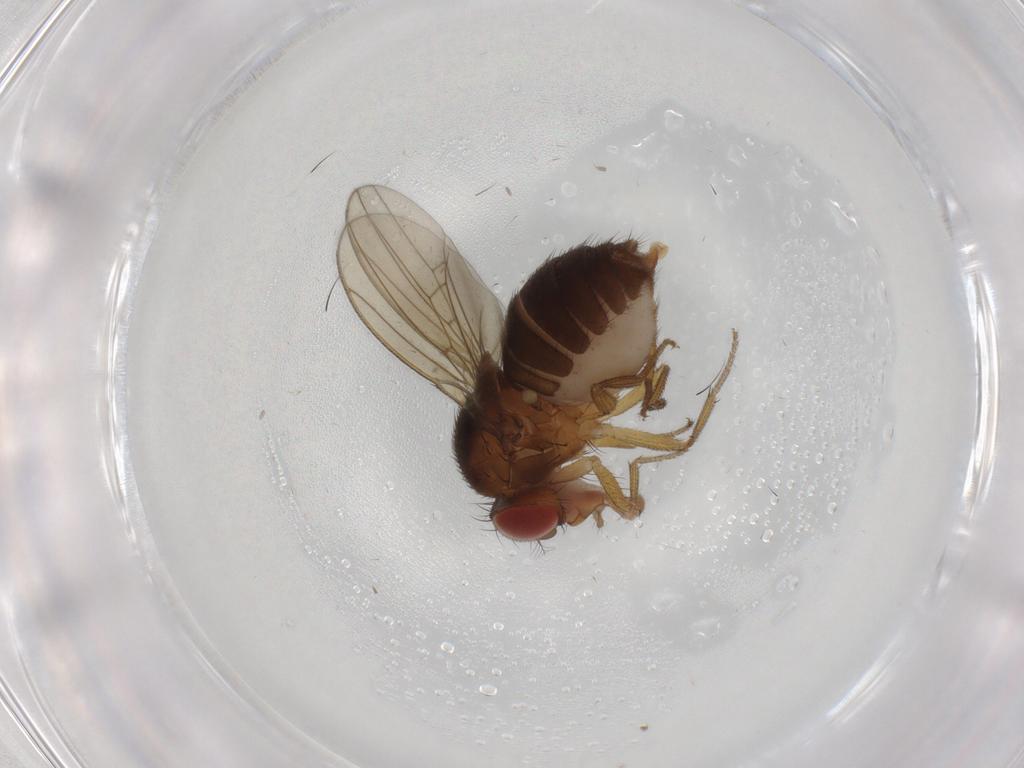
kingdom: Animalia
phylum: Arthropoda
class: Insecta
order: Diptera
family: Drosophilidae
